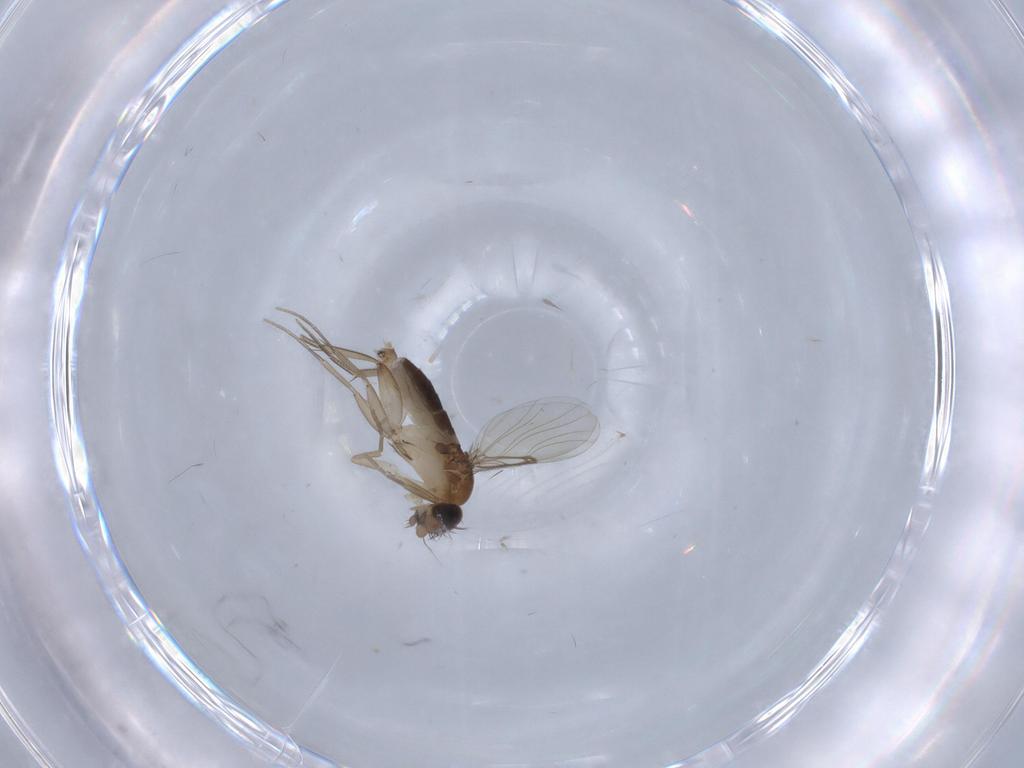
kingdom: Animalia
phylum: Arthropoda
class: Insecta
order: Diptera
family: Phoridae
